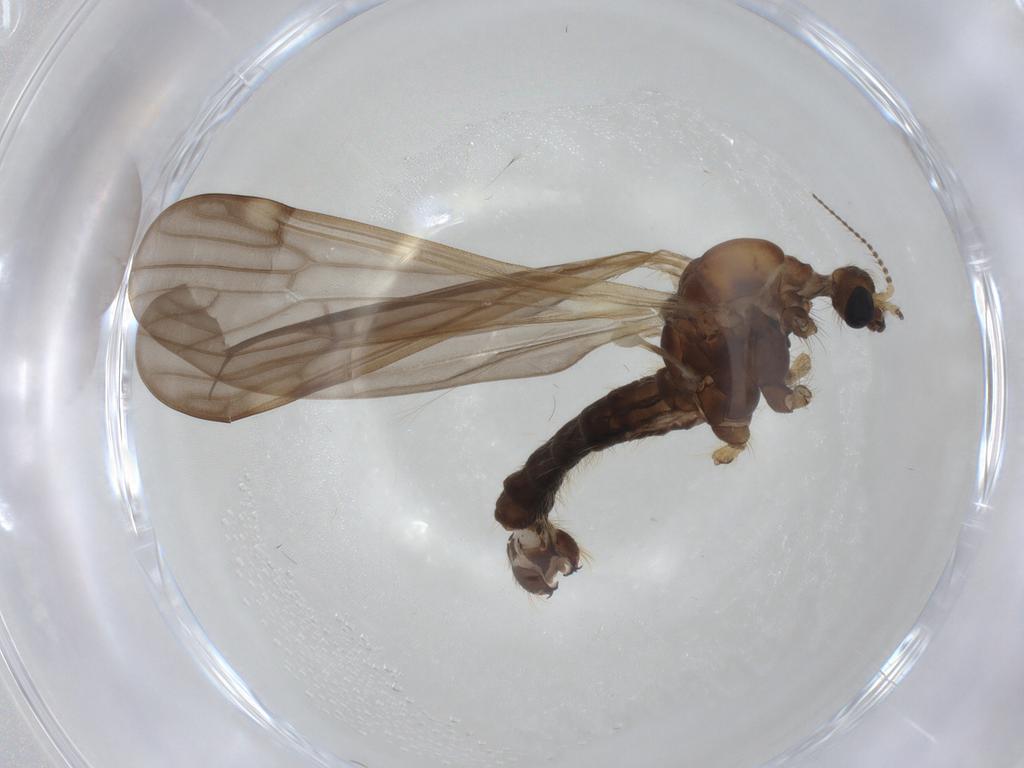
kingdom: Animalia
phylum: Arthropoda
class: Insecta
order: Diptera
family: Limoniidae
